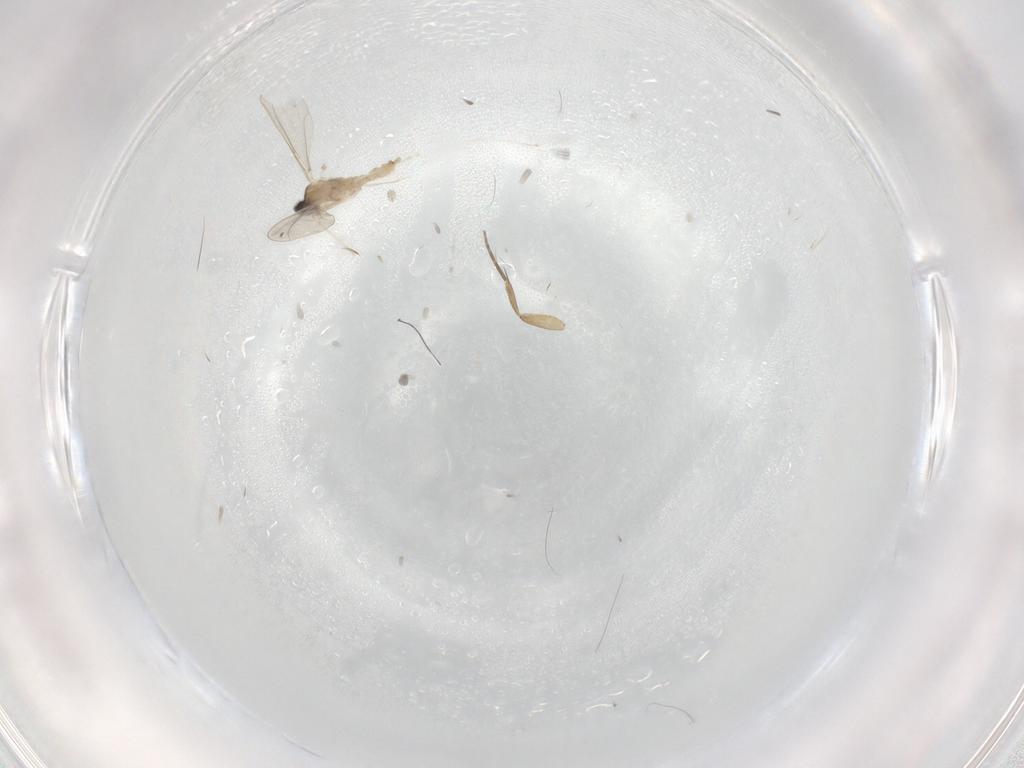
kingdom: Animalia
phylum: Arthropoda
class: Insecta
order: Diptera
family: Cecidomyiidae
